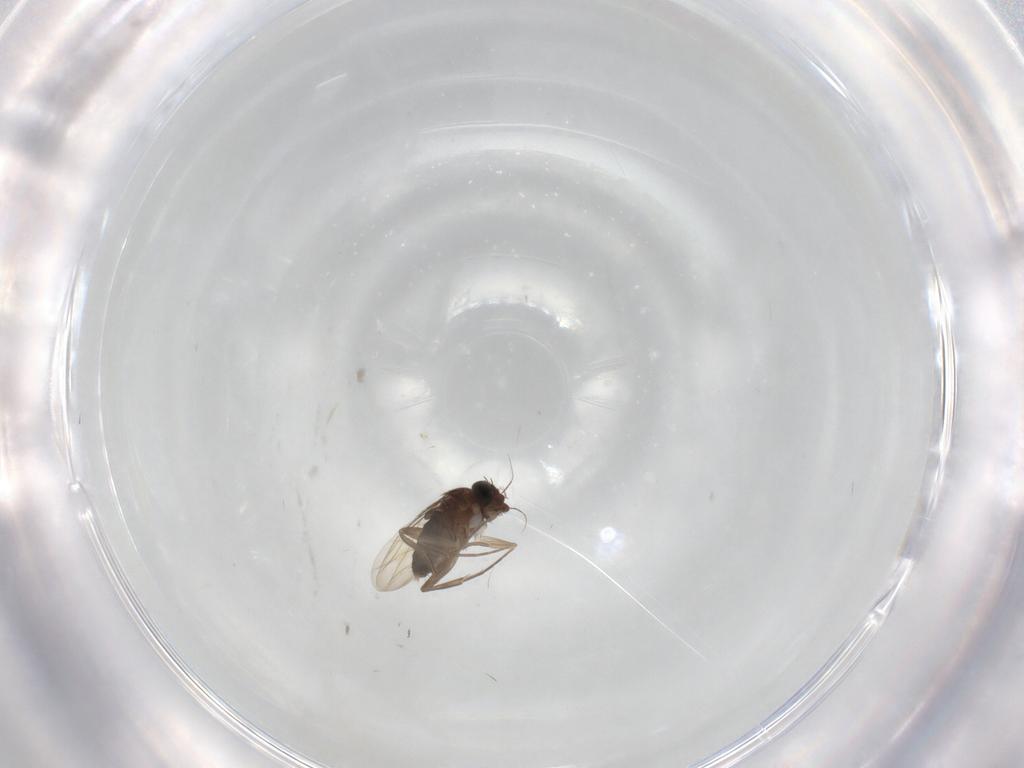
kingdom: Animalia
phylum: Arthropoda
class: Insecta
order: Diptera
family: Phoridae
